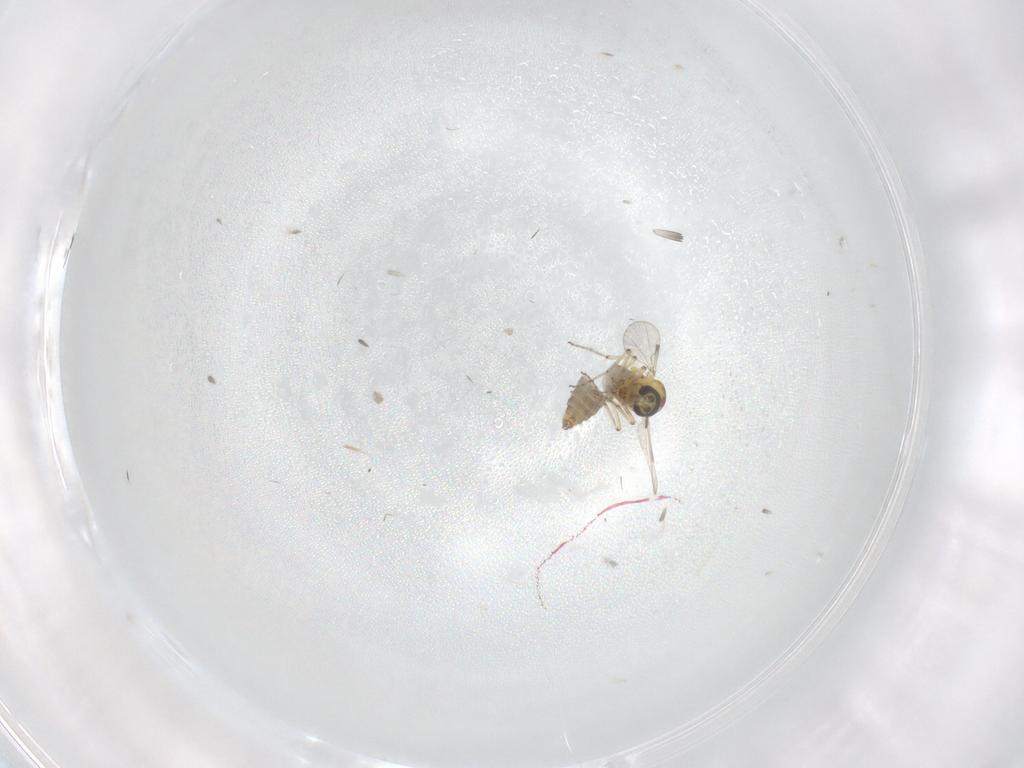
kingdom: Animalia
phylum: Arthropoda
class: Insecta
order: Diptera
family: Ceratopogonidae
